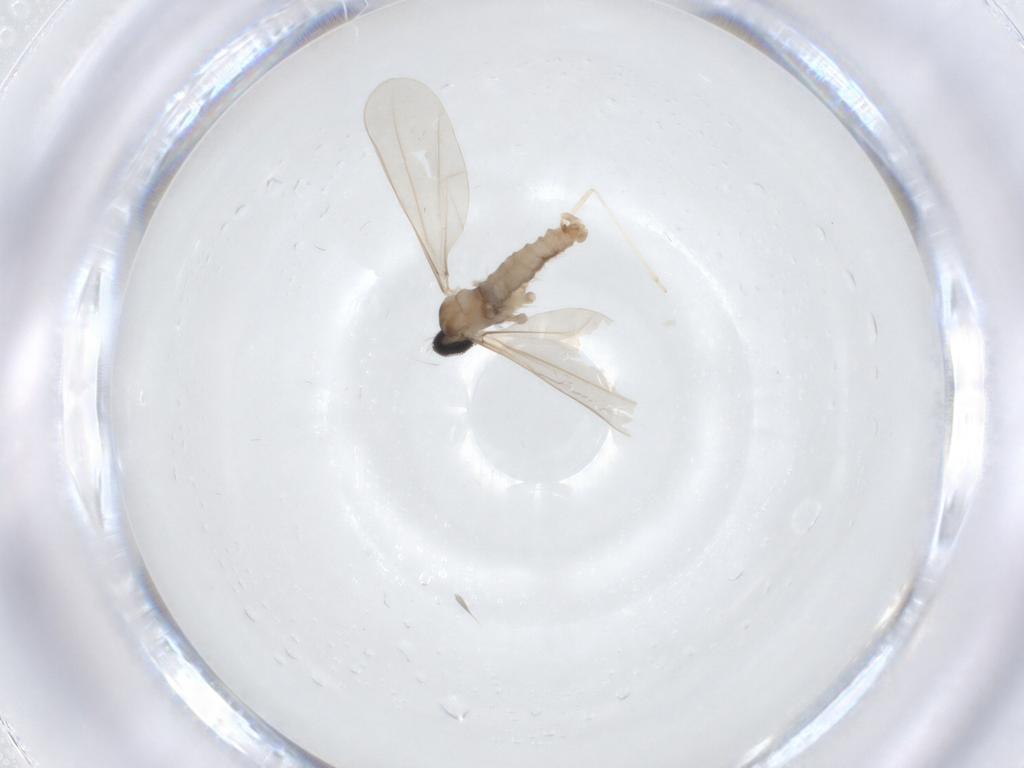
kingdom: Animalia
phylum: Arthropoda
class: Insecta
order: Diptera
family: Cecidomyiidae
